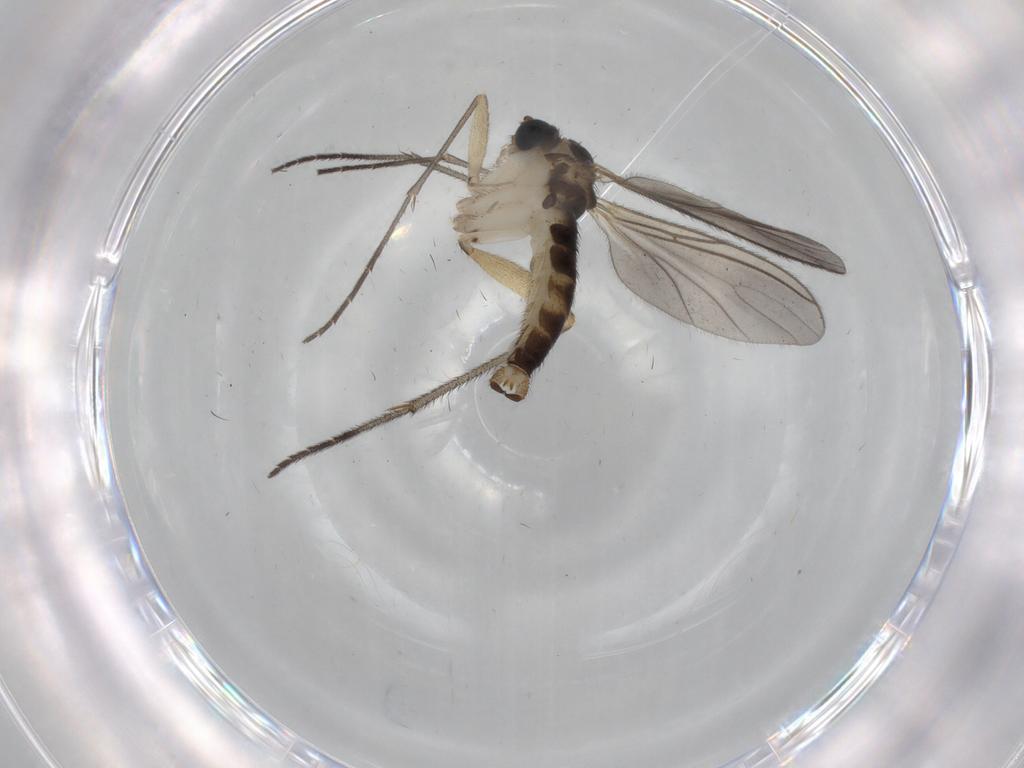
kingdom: Animalia
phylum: Arthropoda
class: Insecta
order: Diptera
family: Sciaridae
